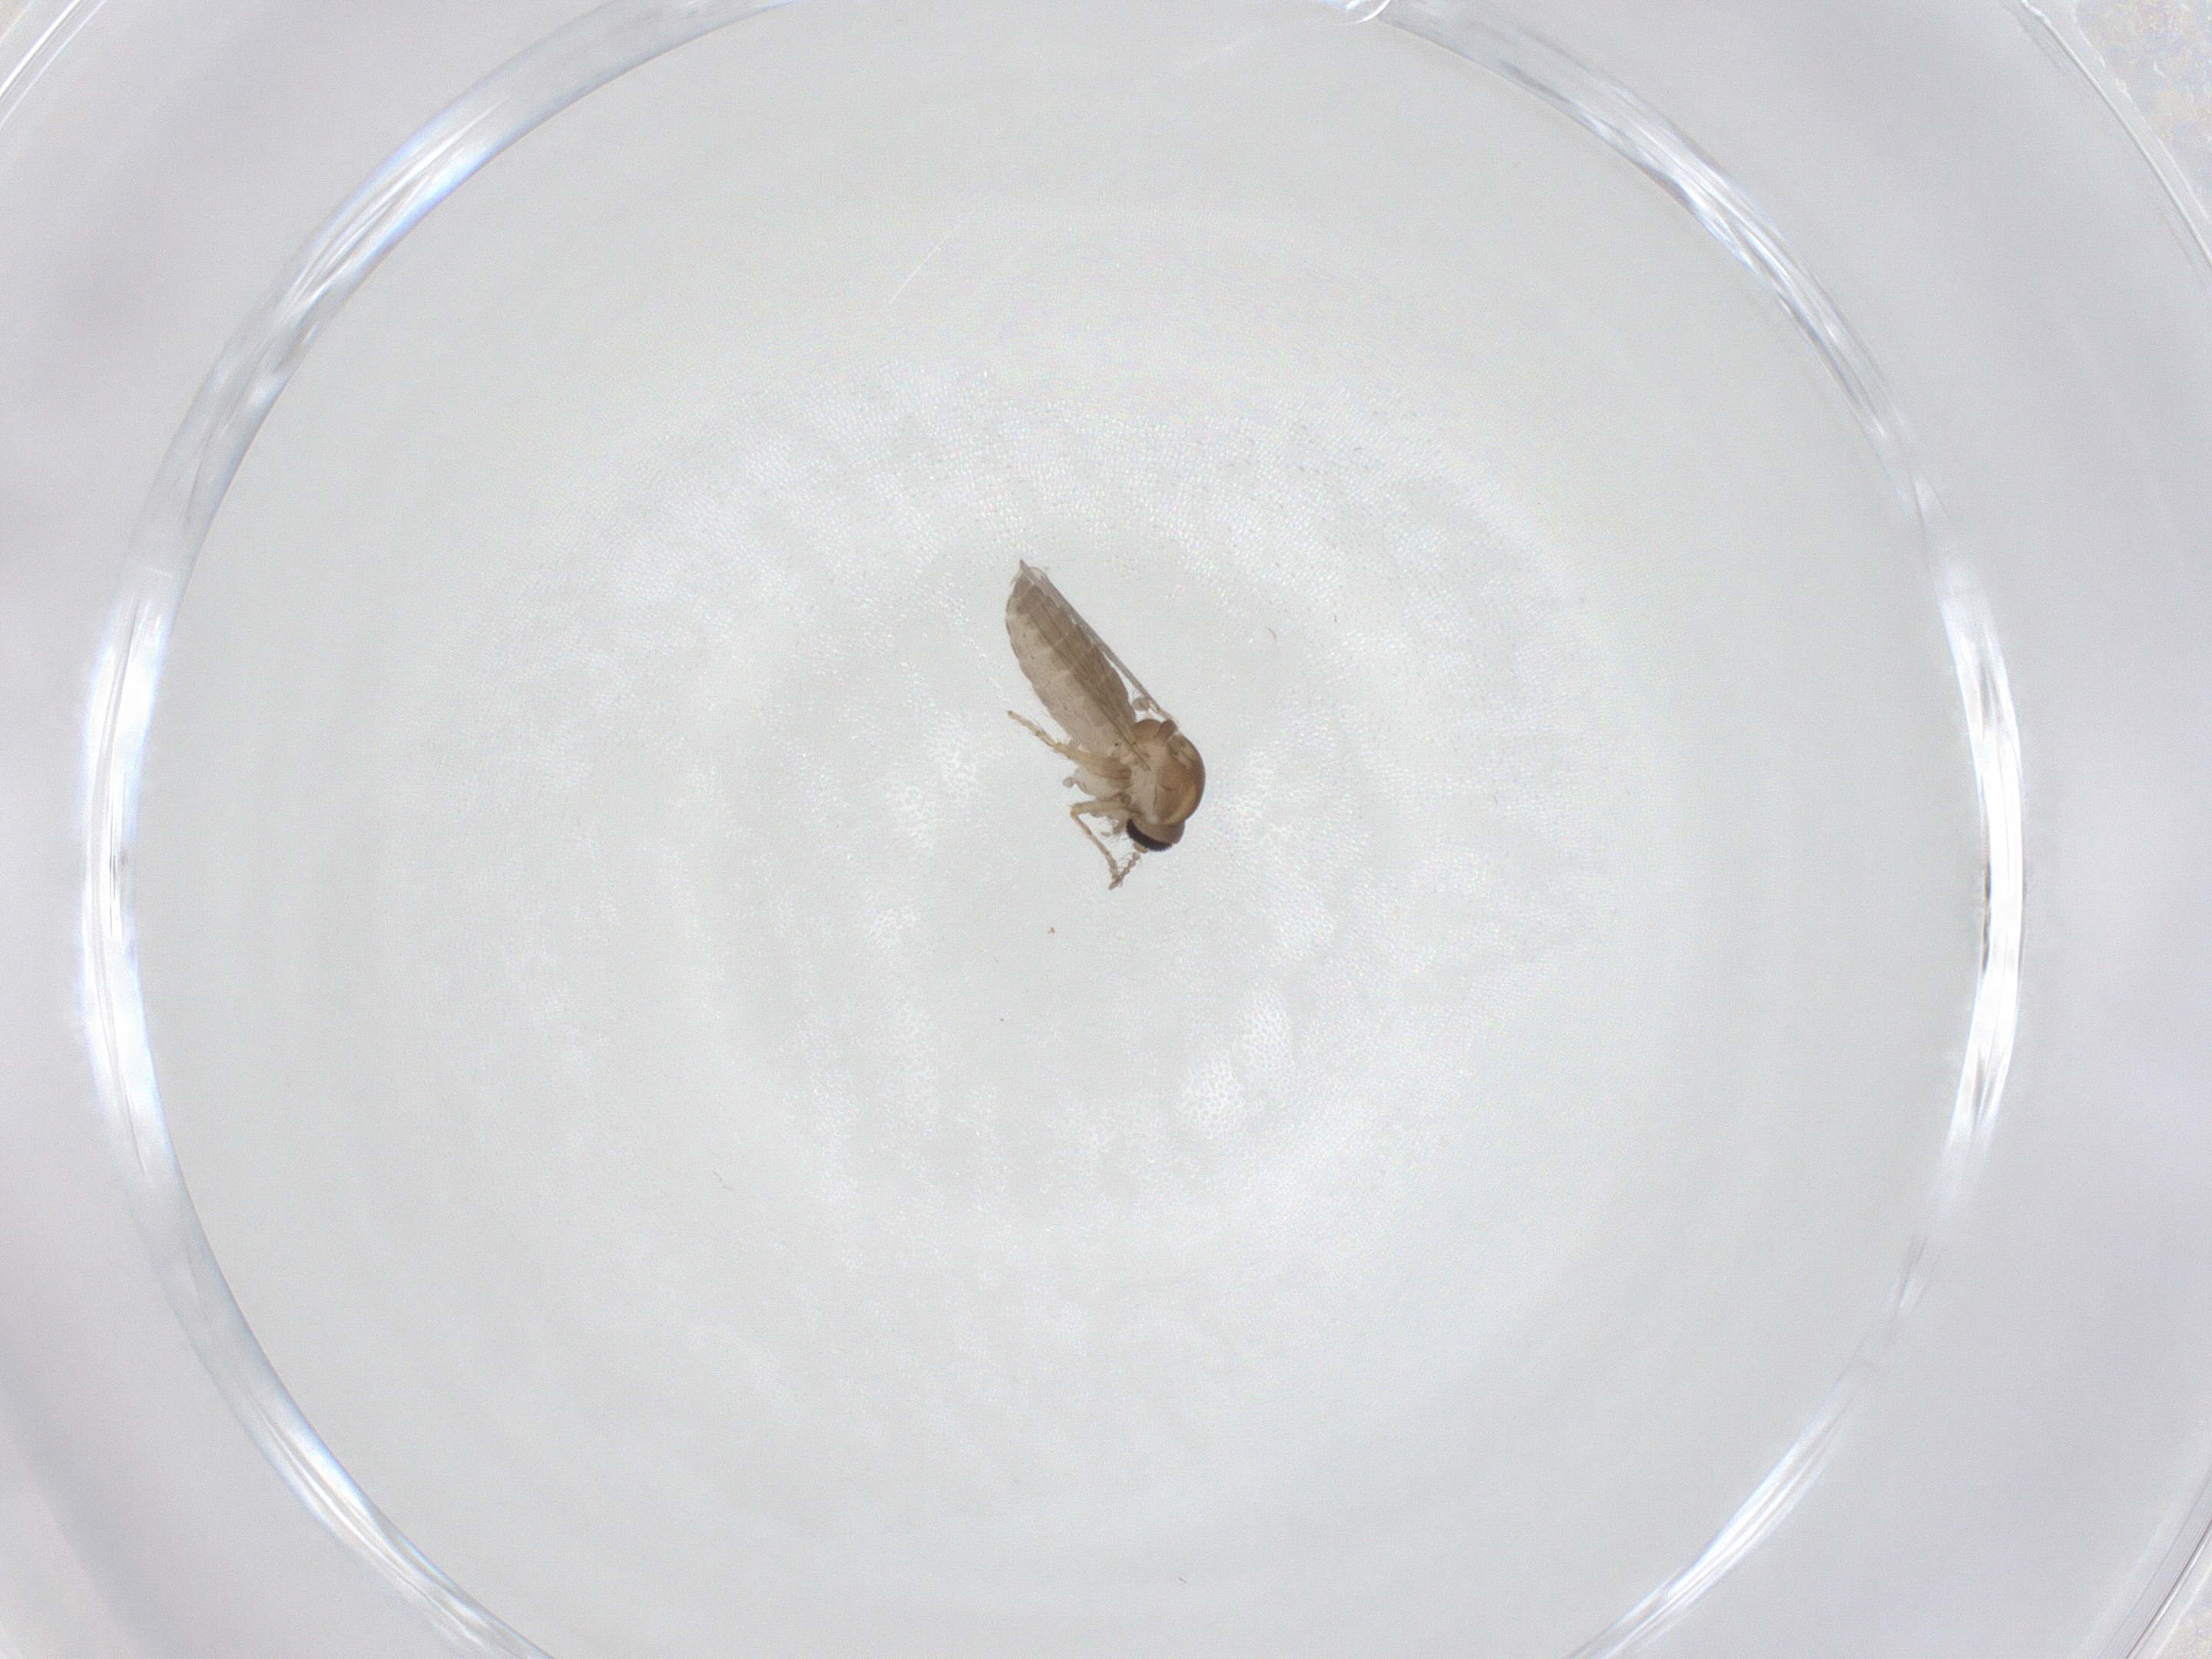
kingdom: Animalia
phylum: Arthropoda
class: Insecta
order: Diptera
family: Ceratopogonidae
